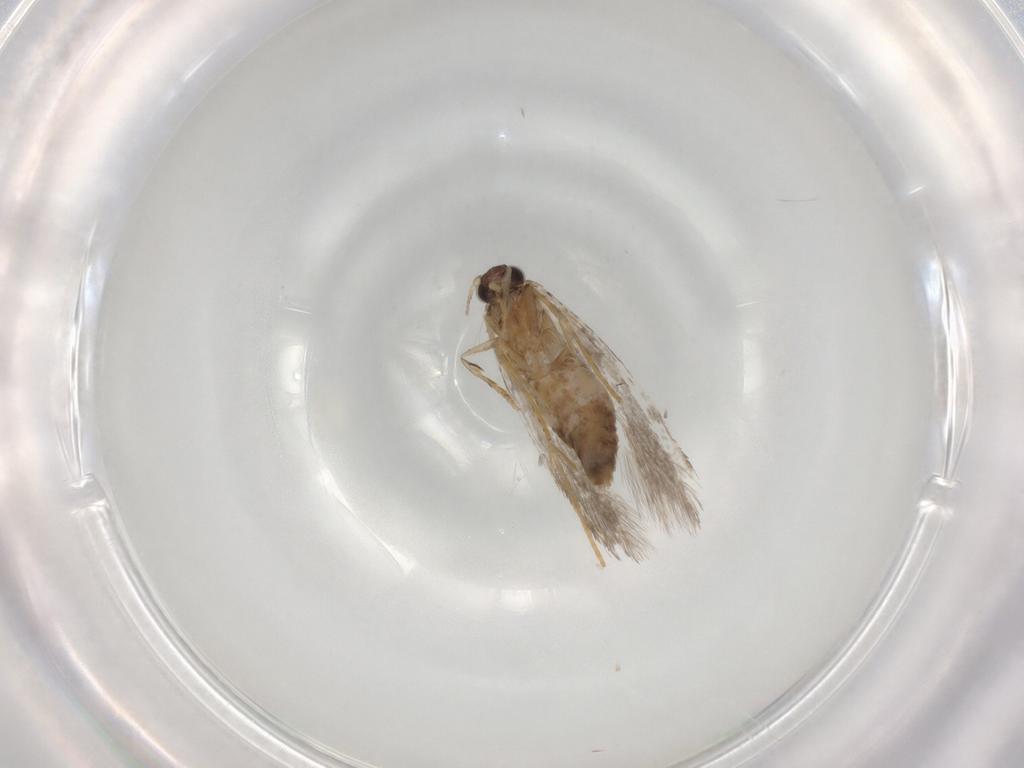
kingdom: Animalia
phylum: Arthropoda
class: Insecta
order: Lepidoptera
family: Tineidae
